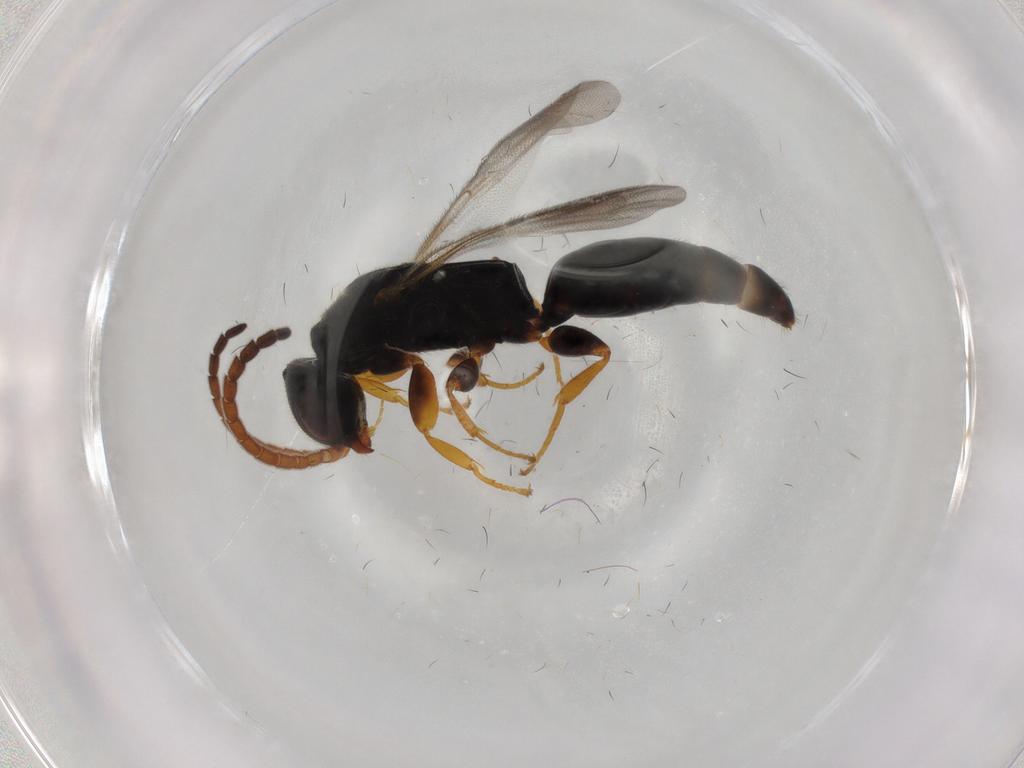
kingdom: Animalia
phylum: Arthropoda
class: Insecta
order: Hymenoptera
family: Bethylidae
